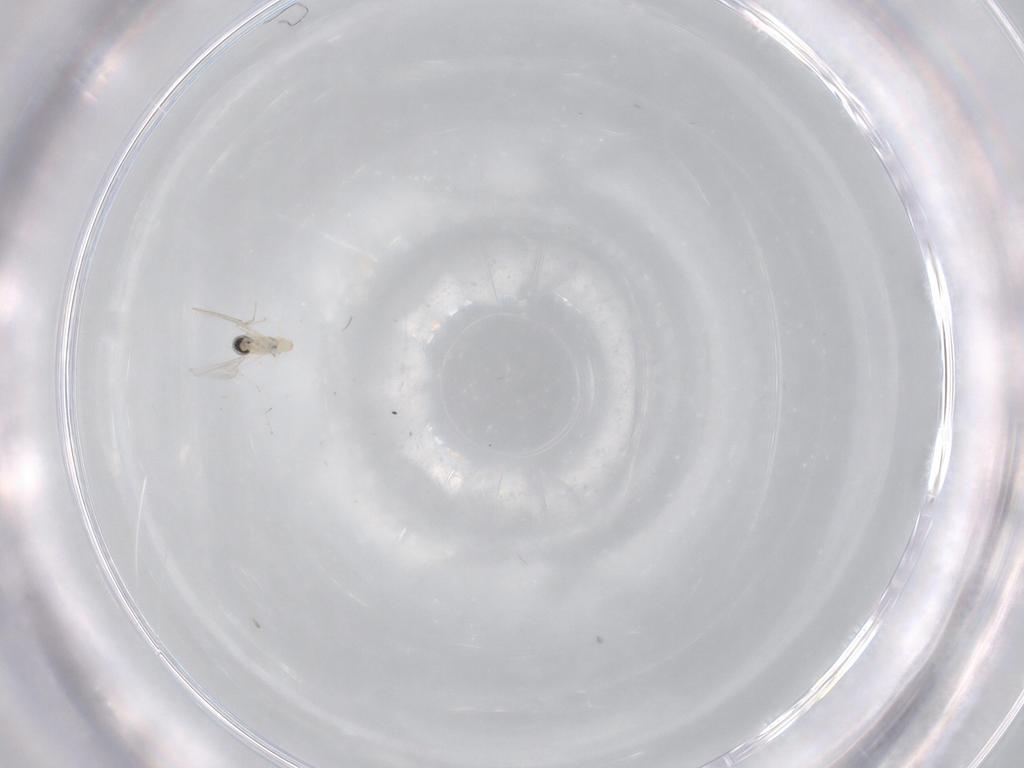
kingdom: Animalia
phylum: Arthropoda
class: Insecta
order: Diptera
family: Cecidomyiidae
